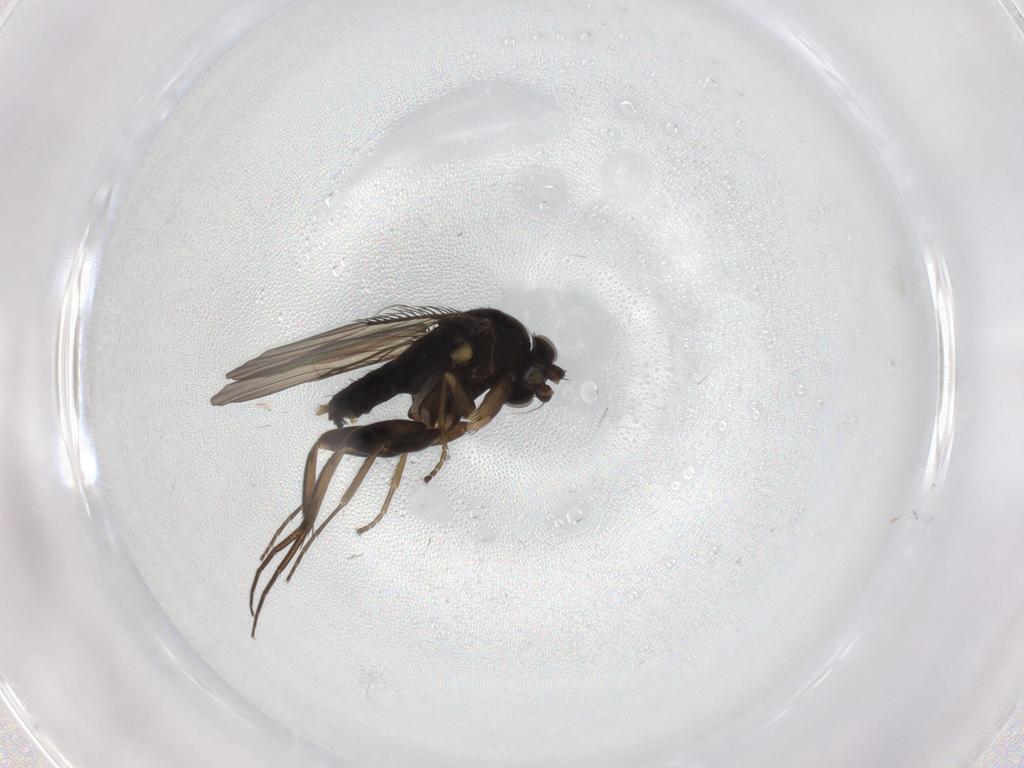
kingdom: Animalia
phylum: Arthropoda
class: Insecta
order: Diptera
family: Phoridae
